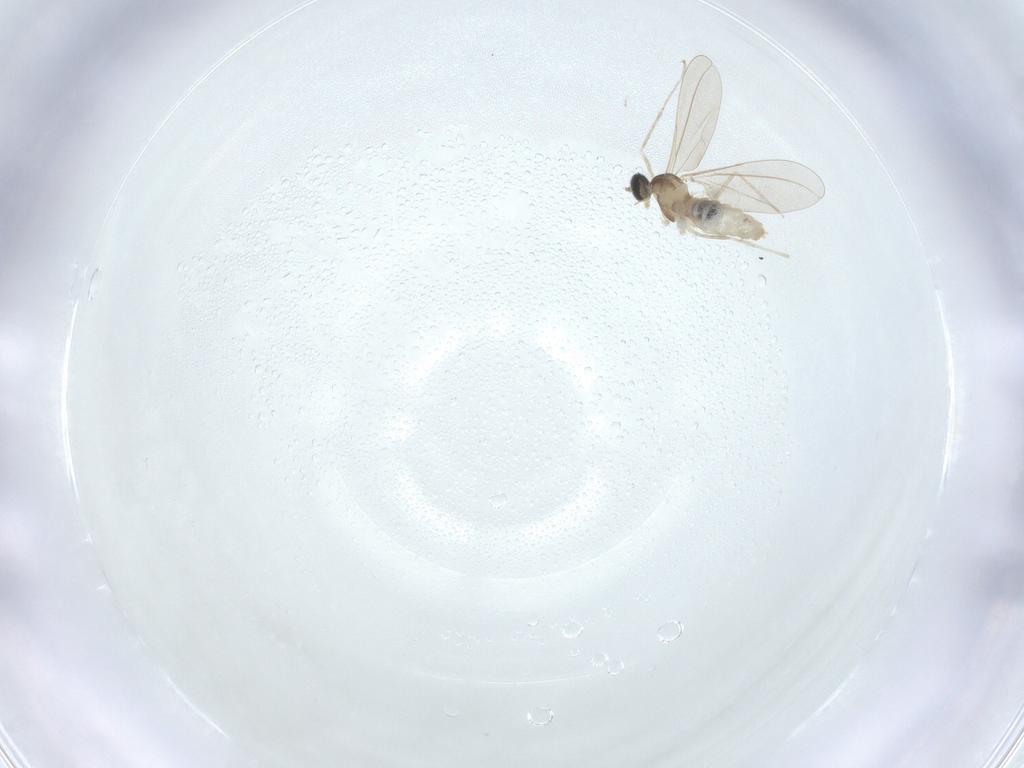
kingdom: Animalia
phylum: Arthropoda
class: Insecta
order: Diptera
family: Cecidomyiidae
